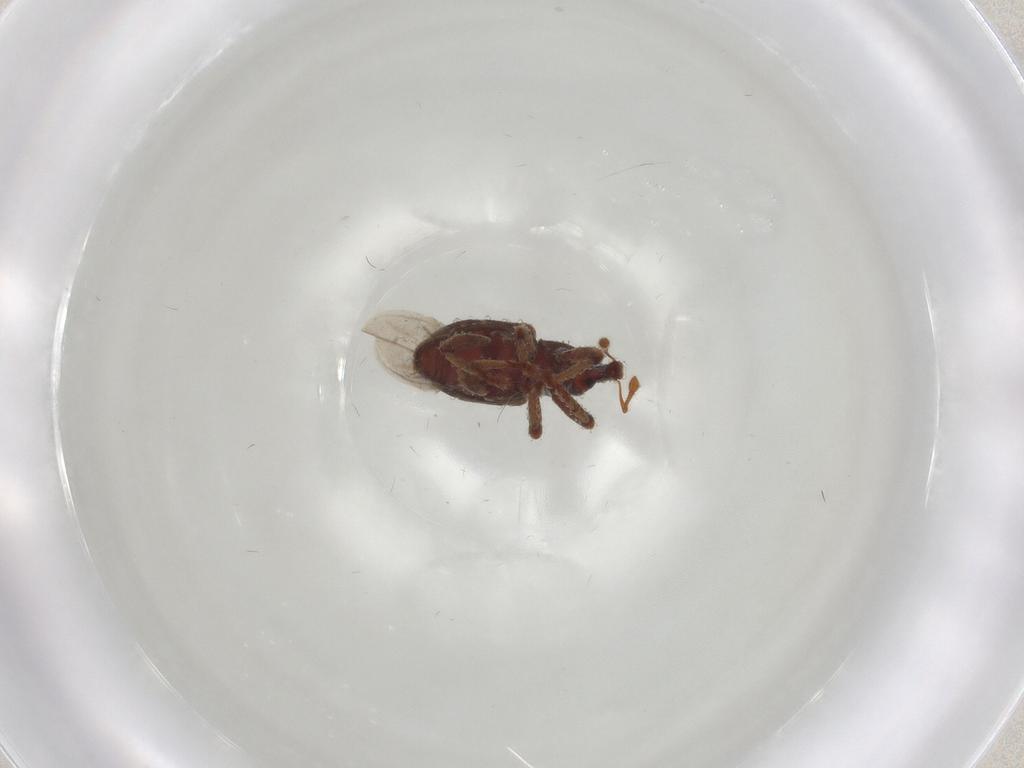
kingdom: Animalia
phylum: Arthropoda
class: Insecta
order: Coleoptera
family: Curculionidae
